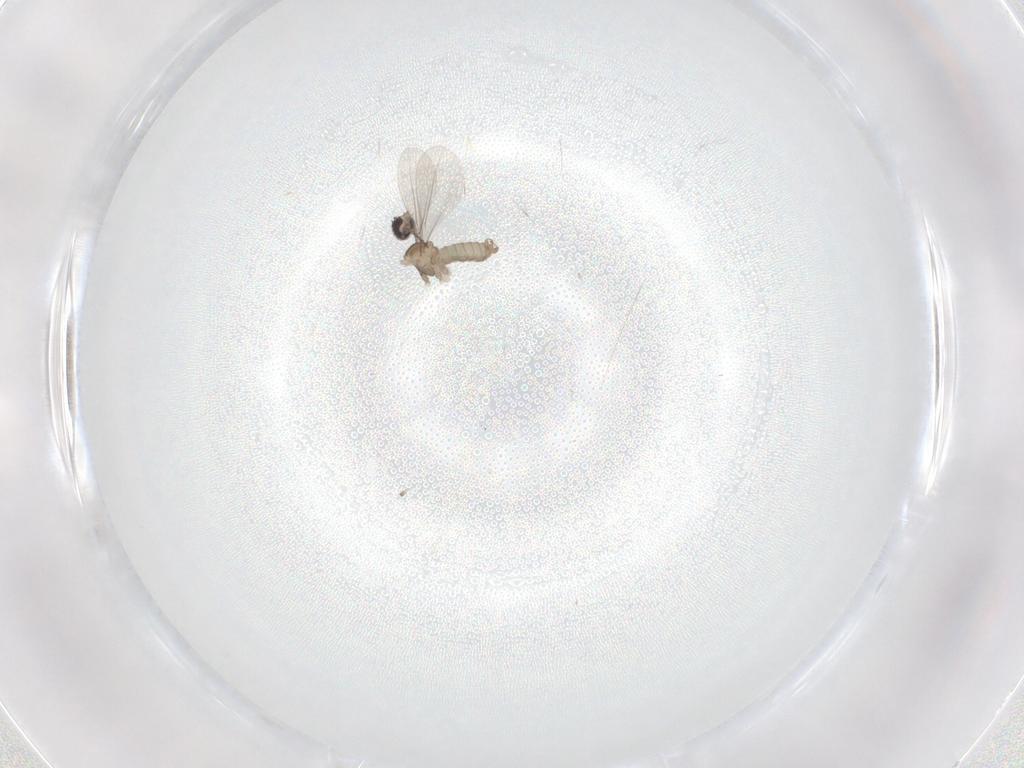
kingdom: Animalia
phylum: Arthropoda
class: Insecta
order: Diptera
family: Cecidomyiidae
